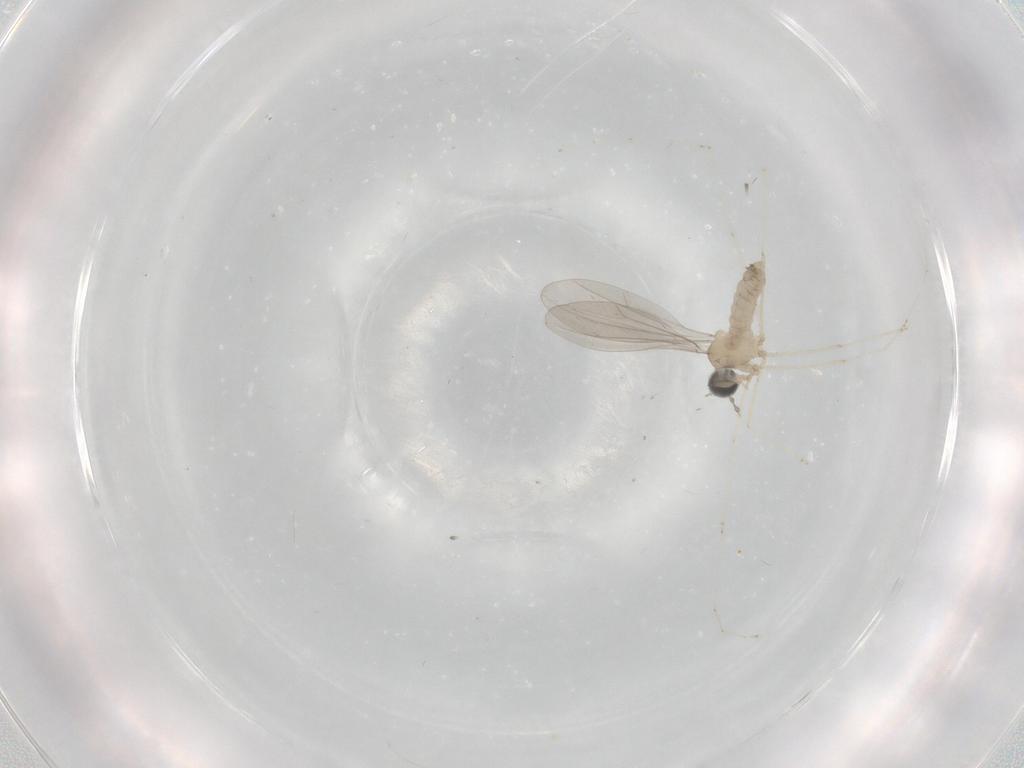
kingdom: Animalia
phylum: Arthropoda
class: Insecta
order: Diptera
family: Cecidomyiidae
